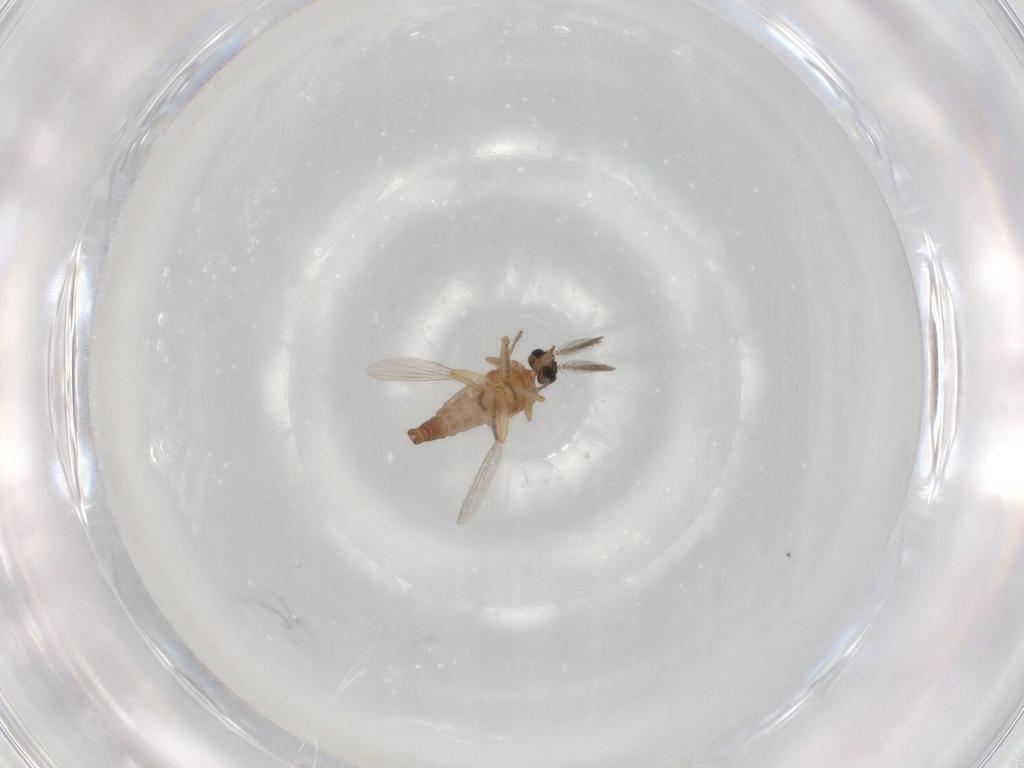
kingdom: Animalia
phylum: Arthropoda
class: Insecta
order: Diptera
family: Ceratopogonidae
